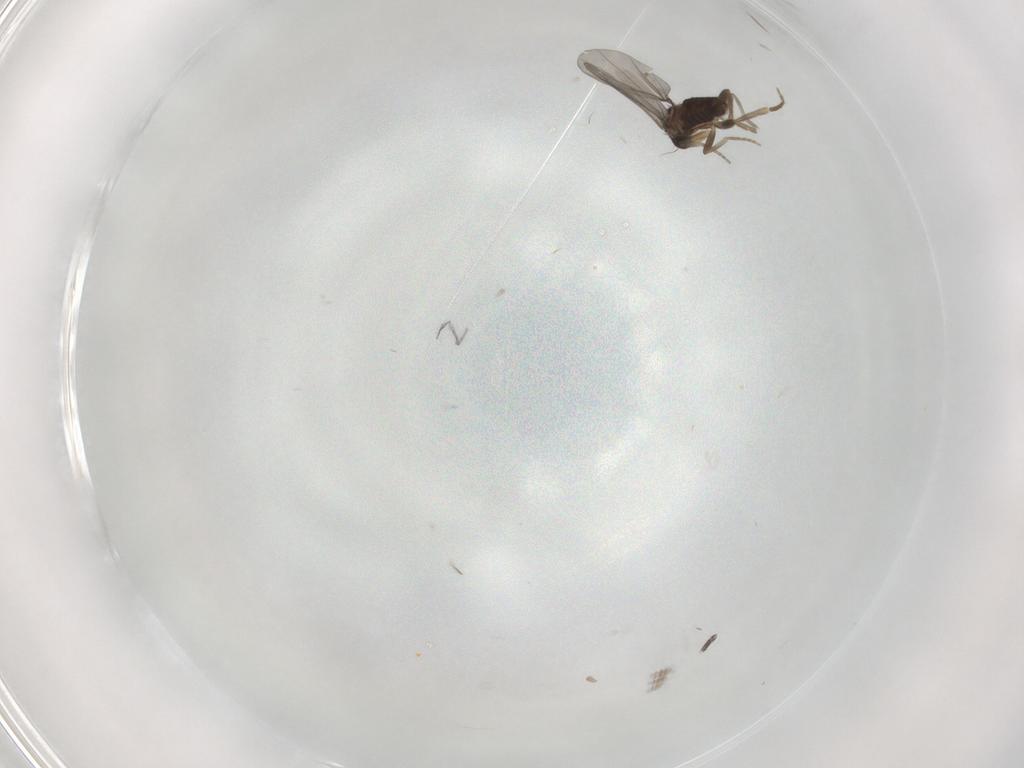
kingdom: Animalia
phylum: Arthropoda
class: Insecta
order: Diptera
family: Chironomidae
